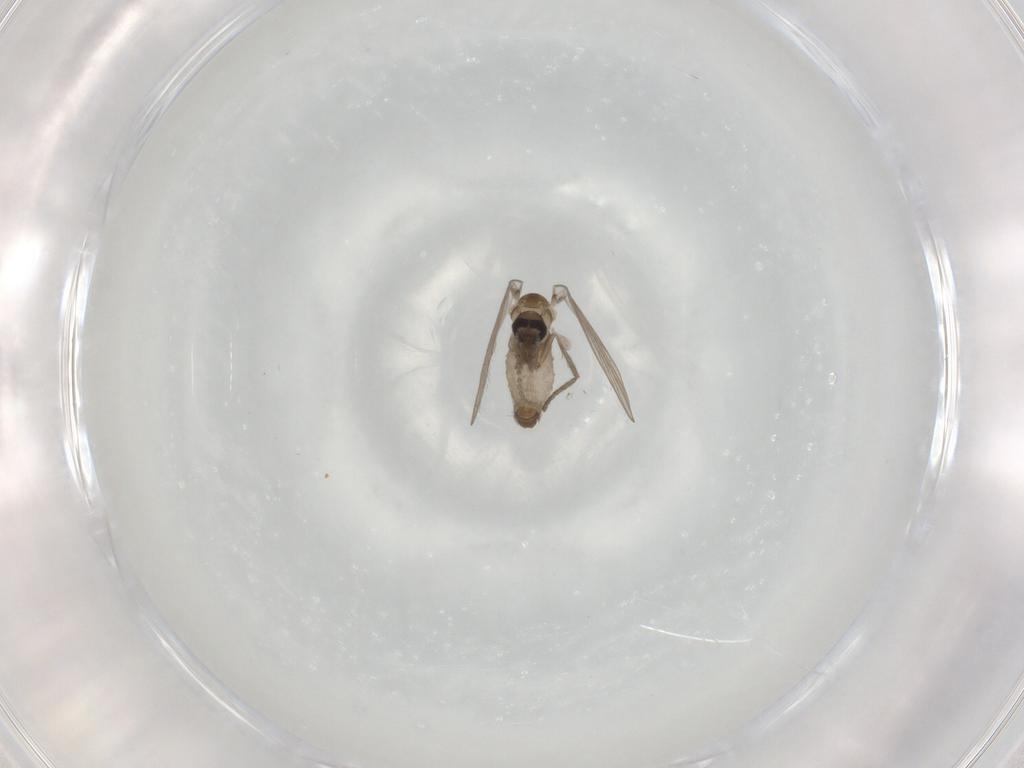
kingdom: Animalia
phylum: Arthropoda
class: Insecta
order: Diptera
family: Psychodidae
